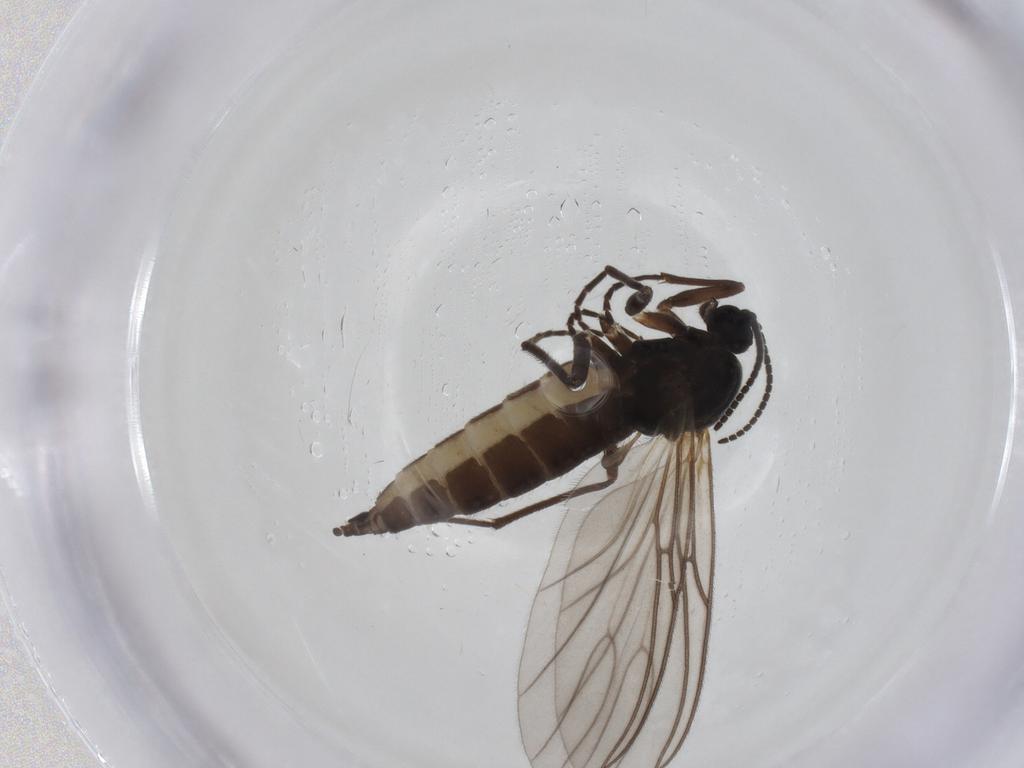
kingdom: Animalia
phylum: Arthropoda
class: Insecta
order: Diptera
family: Sciaridae
